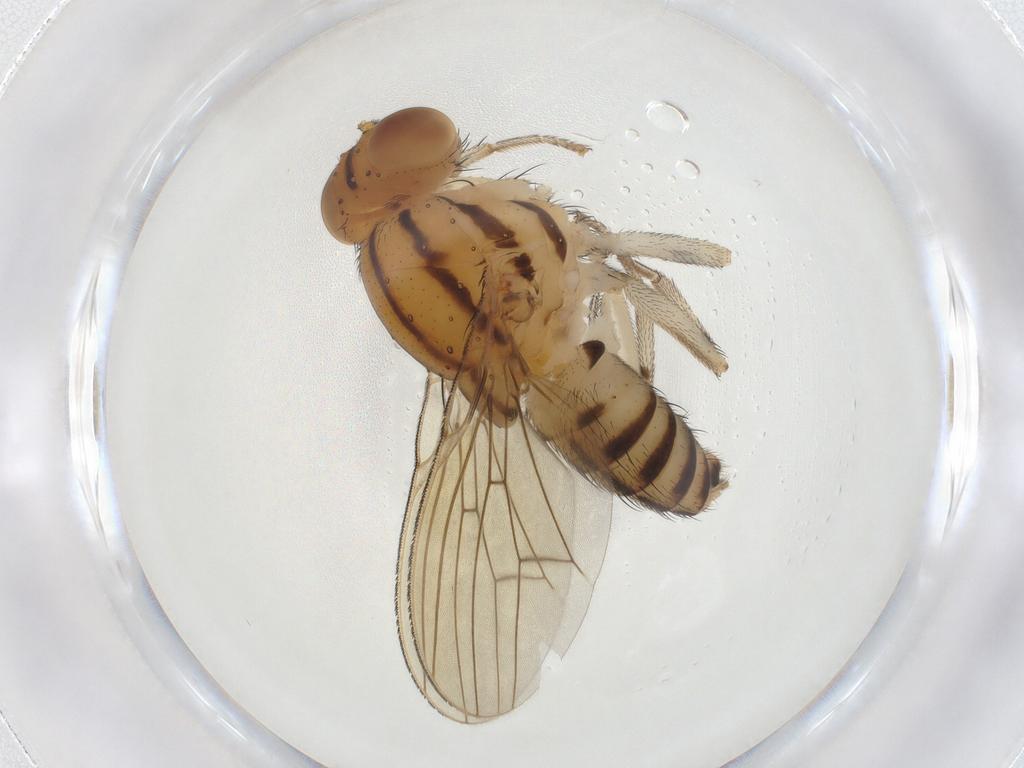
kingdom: Animalia
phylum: Arthropoda
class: Insecta
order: Diptera
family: Lauxaniidae
